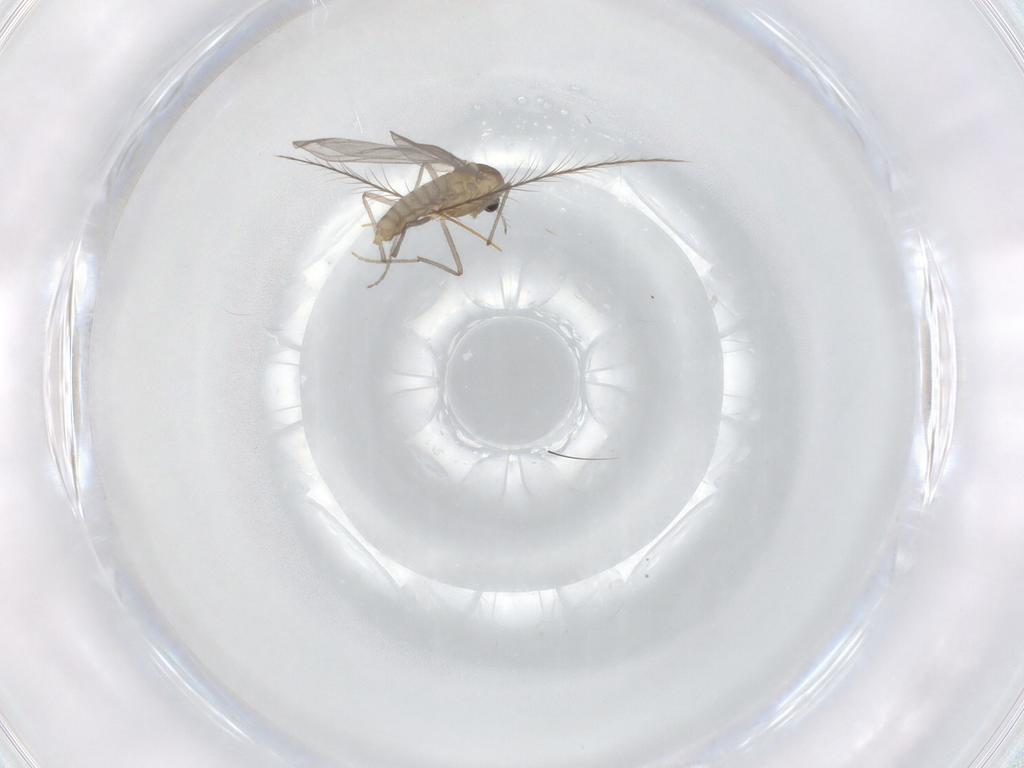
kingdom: Animalia
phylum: Arthropoda
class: Insecta
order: Diptera
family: Chironomidae
